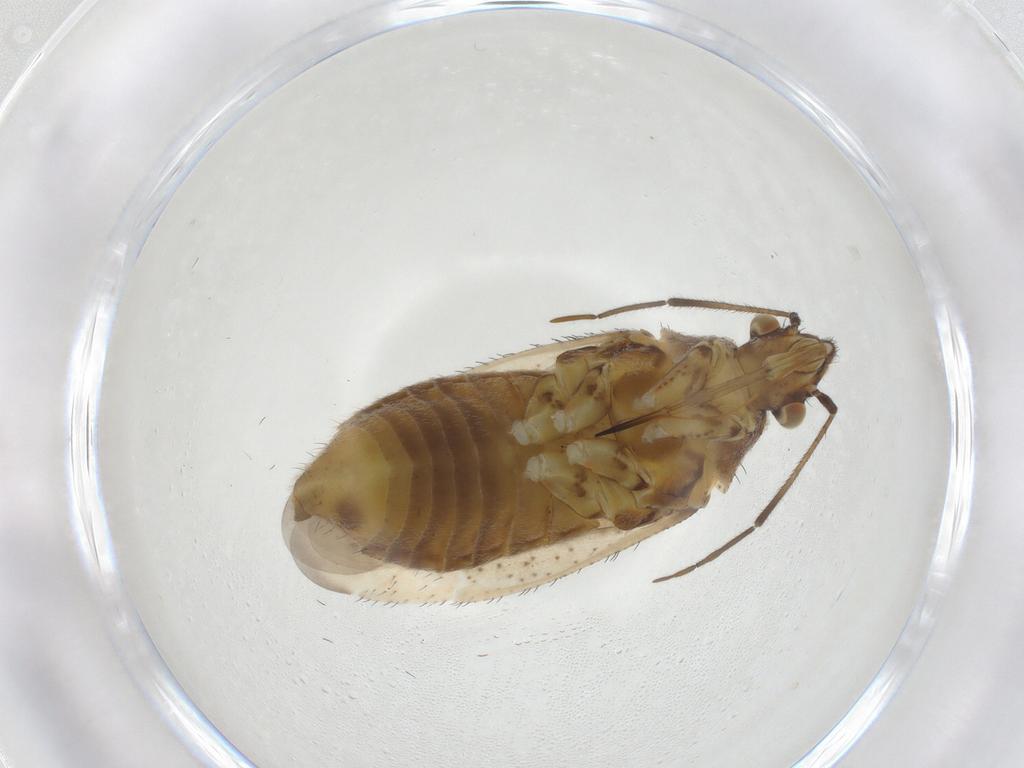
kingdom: Animalia
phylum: Arthropoda
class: Insecta
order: Hemiptera
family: Miridae
